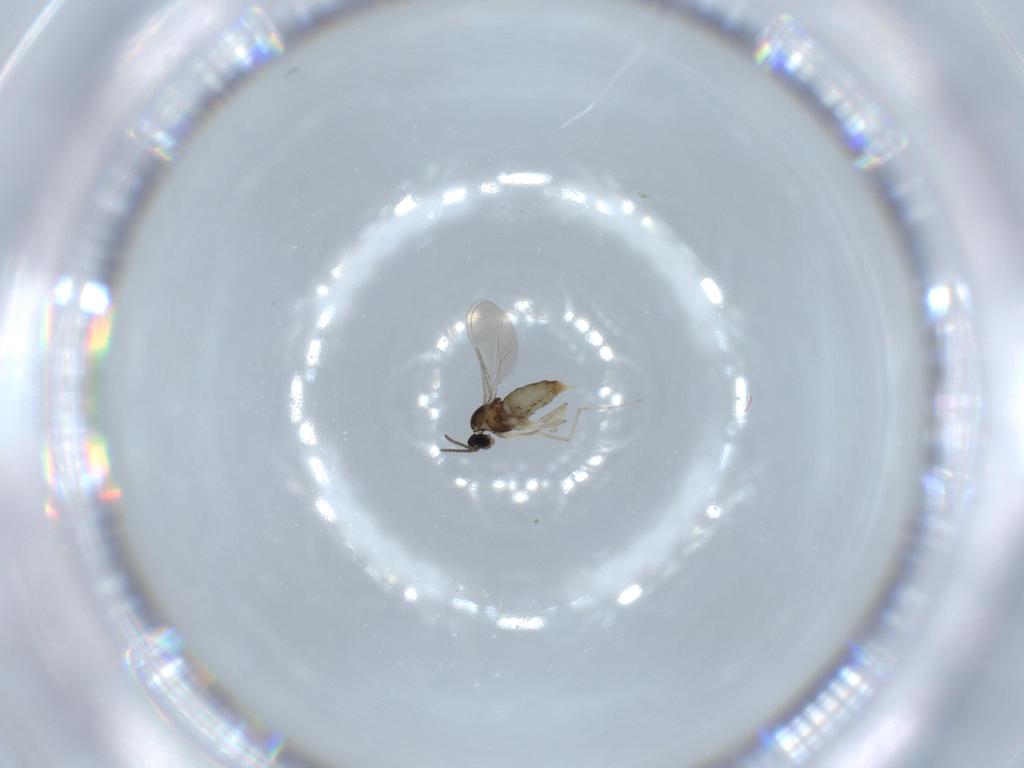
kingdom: Animalia
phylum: Arthropoda
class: Insecta
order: Diptera
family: Cecidomyiidae
